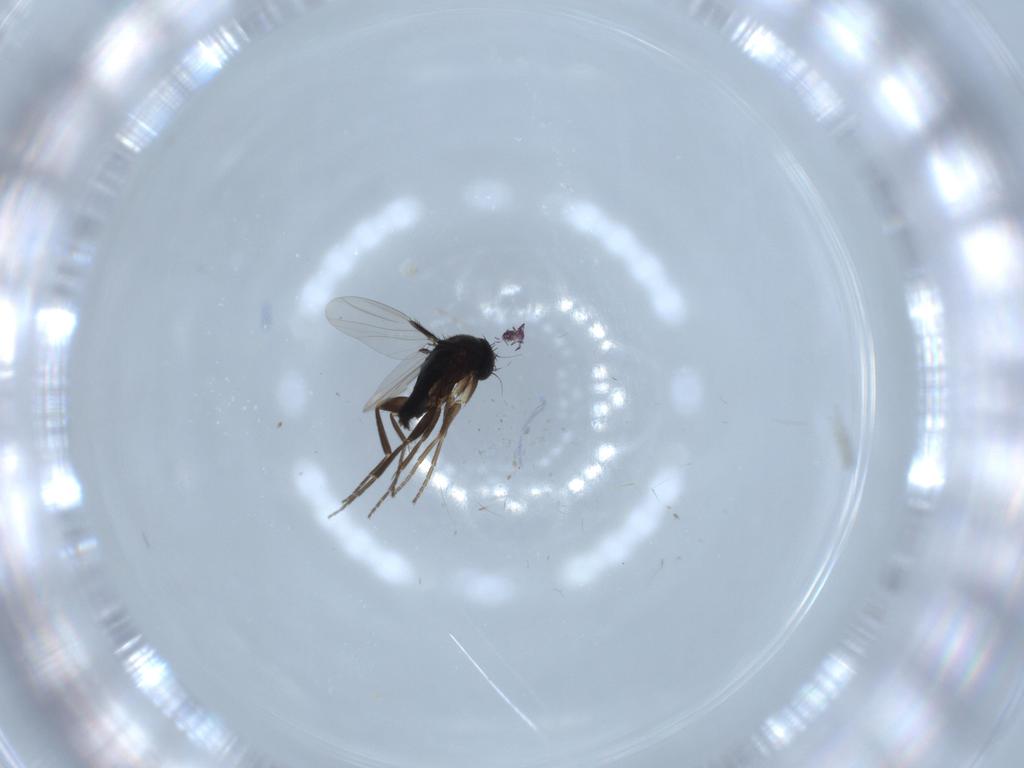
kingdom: Animalia
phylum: Arthropoda
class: Insecta
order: Diptera
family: Phoridae
